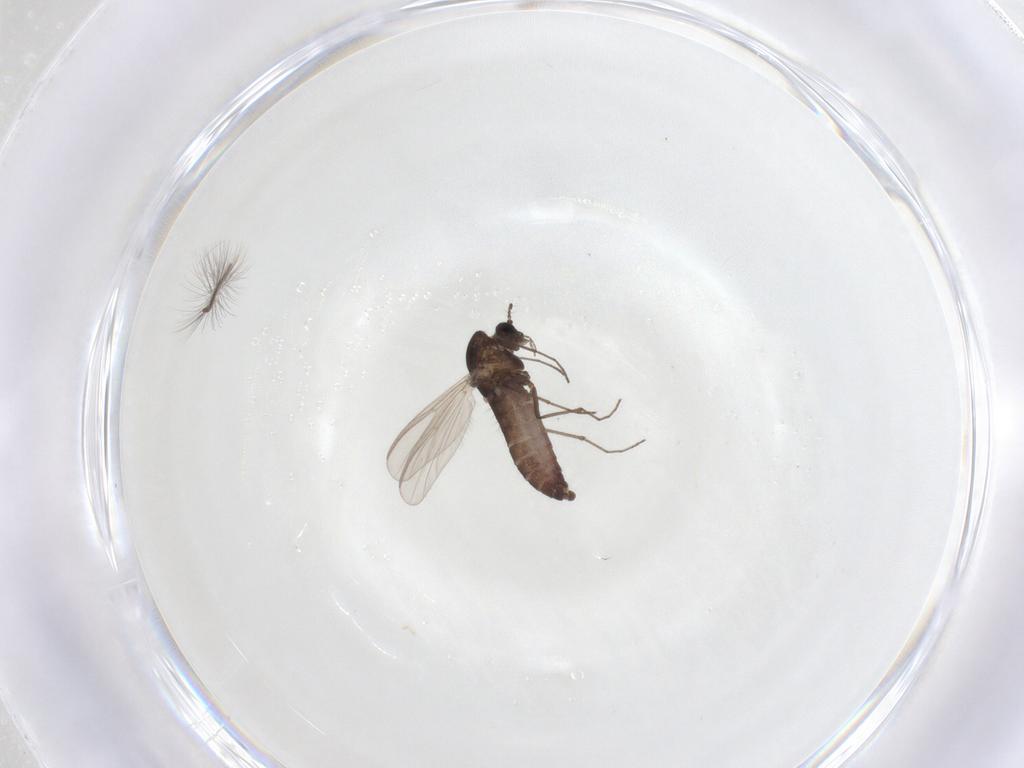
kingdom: Animalia
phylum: Arthropoda
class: Insecta
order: Diptera
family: Chironomidae
